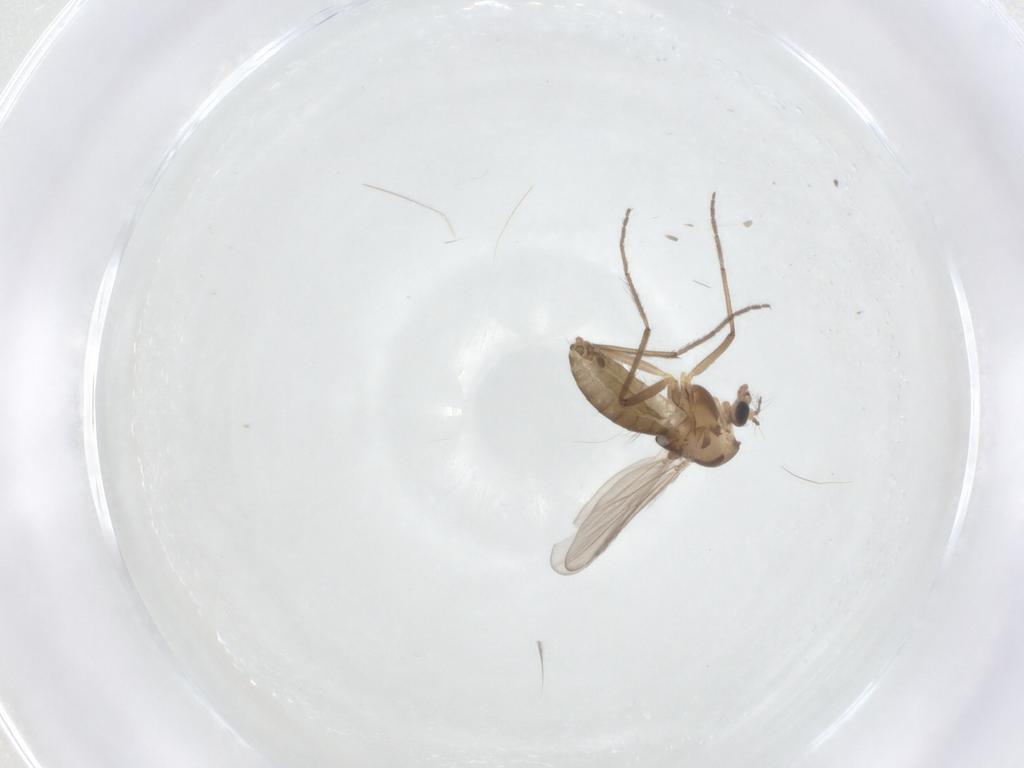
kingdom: Animalia
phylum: Arthropoda
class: Insecta
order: Diptera
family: Chironomidae
